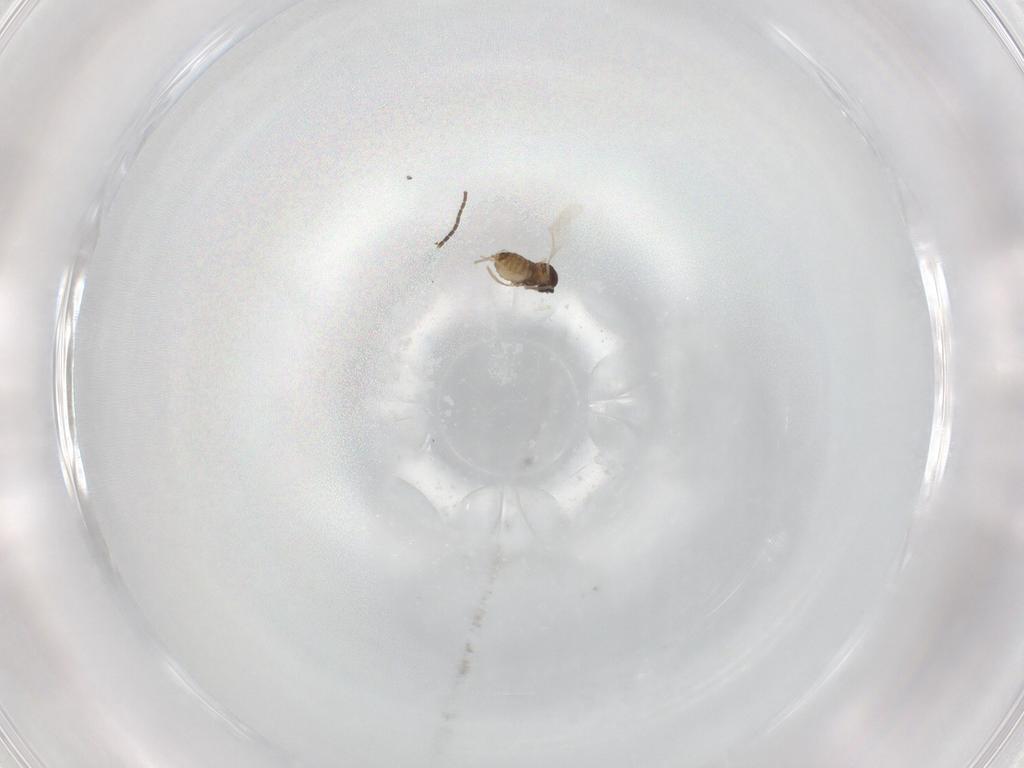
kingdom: Animalia
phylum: Arthropoda
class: Insecta
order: Diptera
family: Cecidomyiidae
